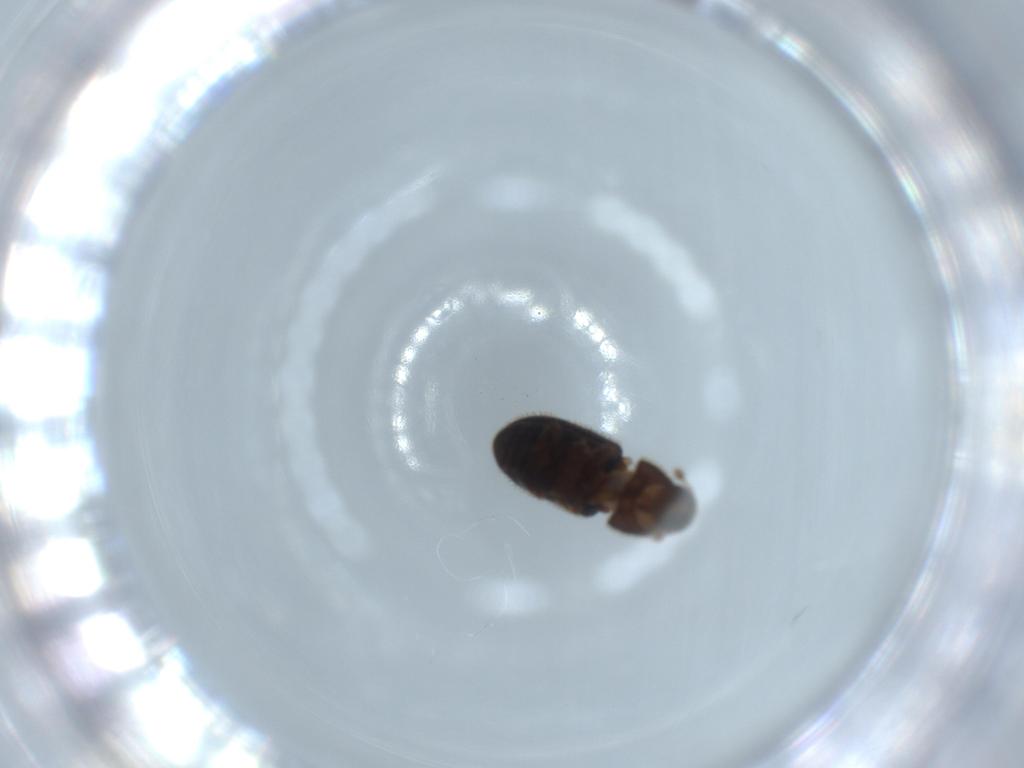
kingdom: Animalia
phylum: Arthropoda
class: Insecta
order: Coleoptera
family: Curculionidae
